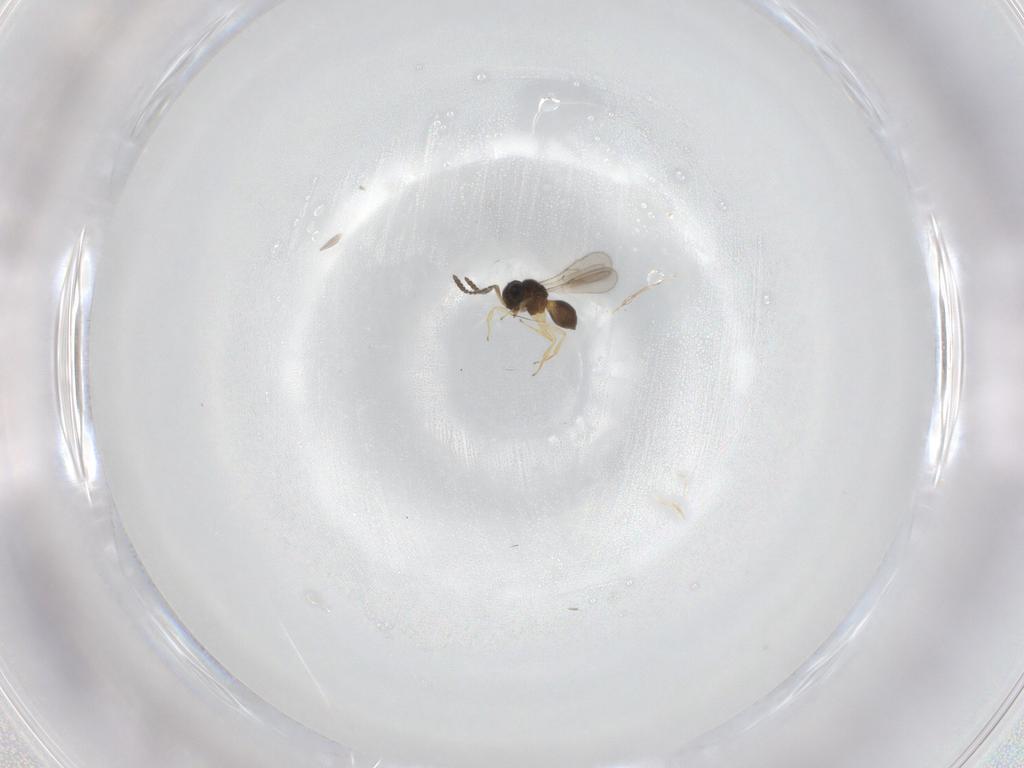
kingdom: Animalia
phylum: Arthropoda
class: Insecta
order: Hymenoptera
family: Scelionidae
